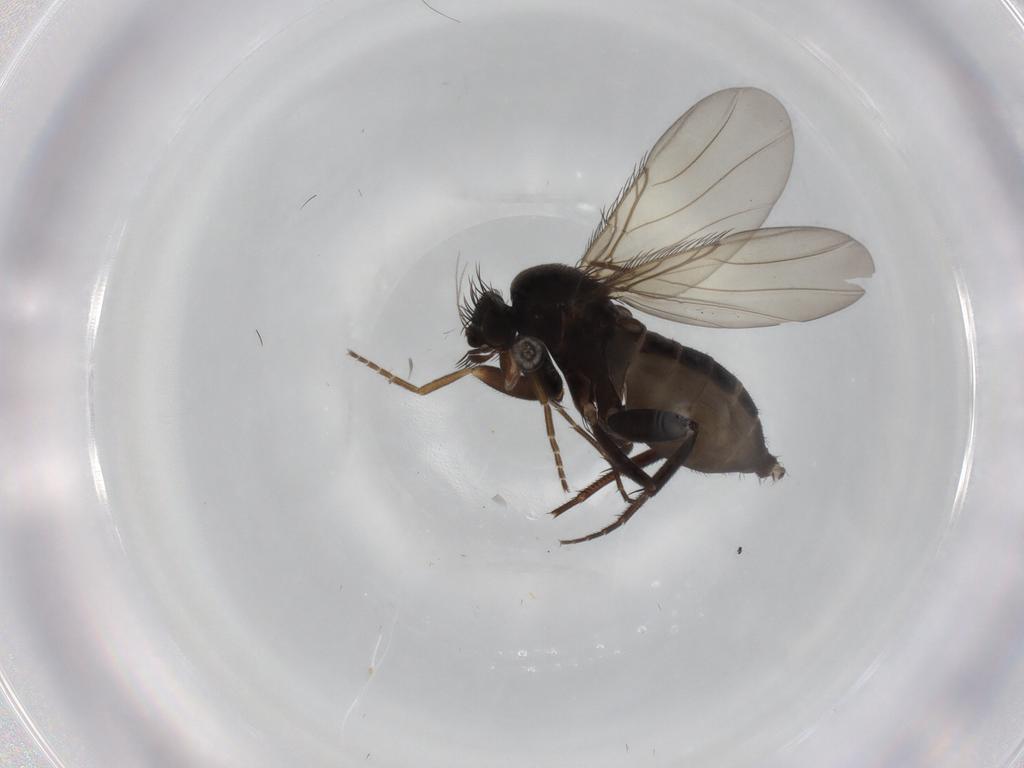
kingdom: Animalia
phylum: Arthropoda
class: Insecta
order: Diptera
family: Phoridae
